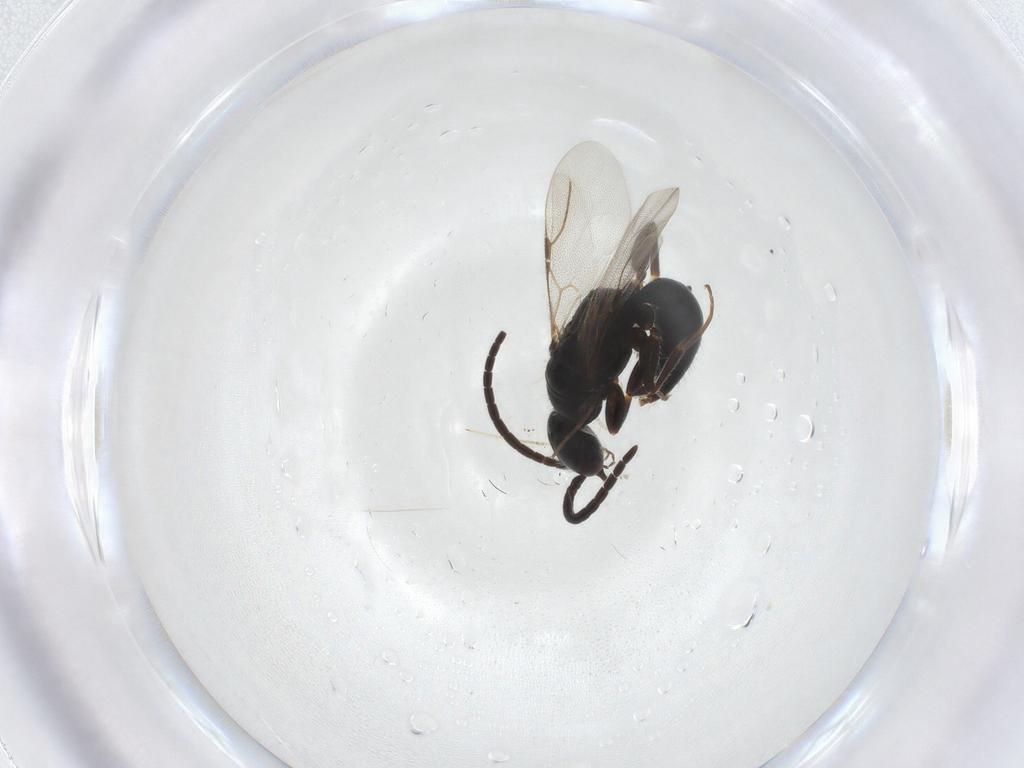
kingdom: Animalia
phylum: Arthropoda
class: Insecta
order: Hymenoptera
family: Bethylidae
